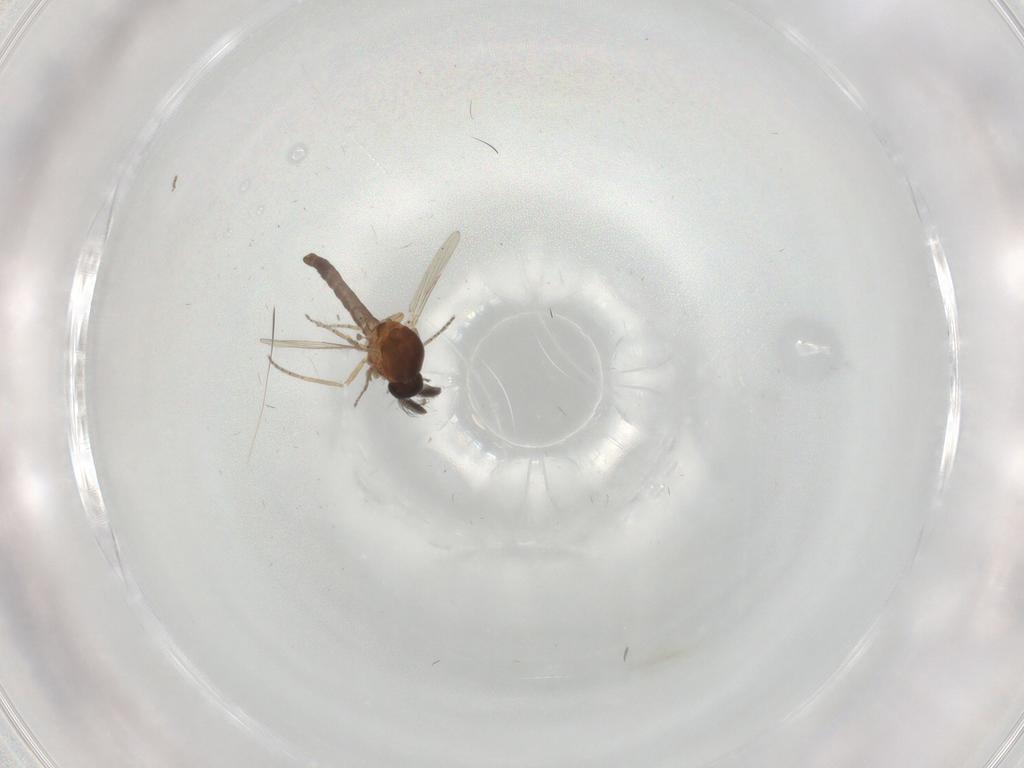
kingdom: Animalia
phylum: Arthropoda
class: Insecta
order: Diptera
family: Ceratopogonidae
